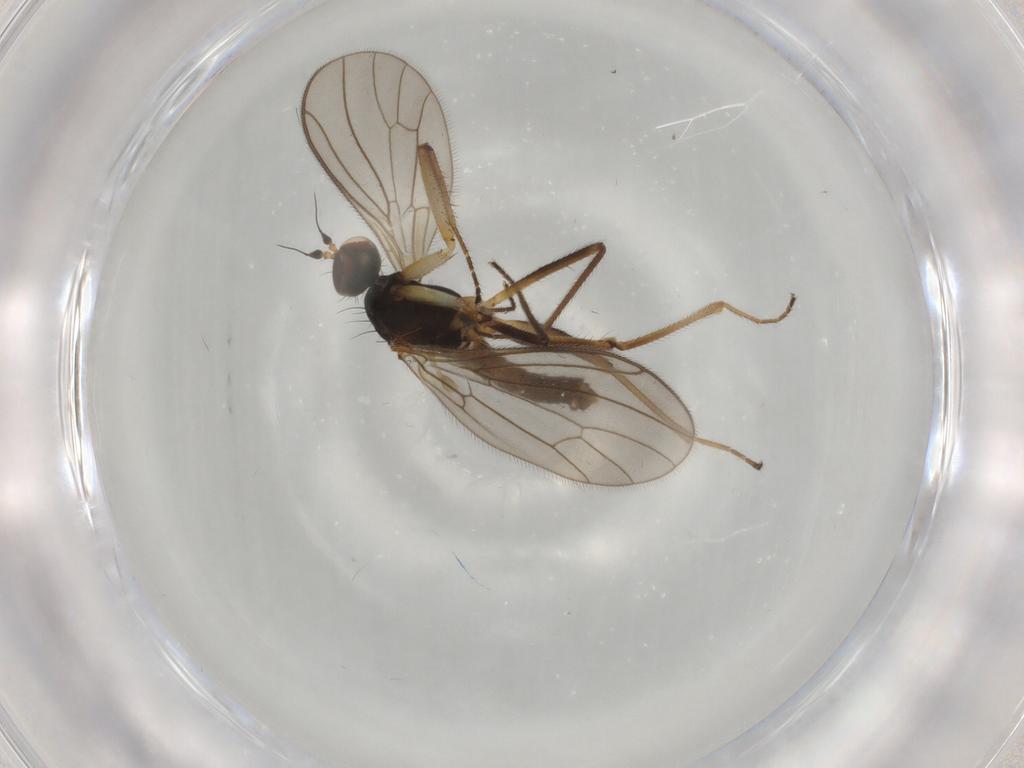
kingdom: Animalia
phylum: Arthropoda
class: Insecta
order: Diptera
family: Empididae
